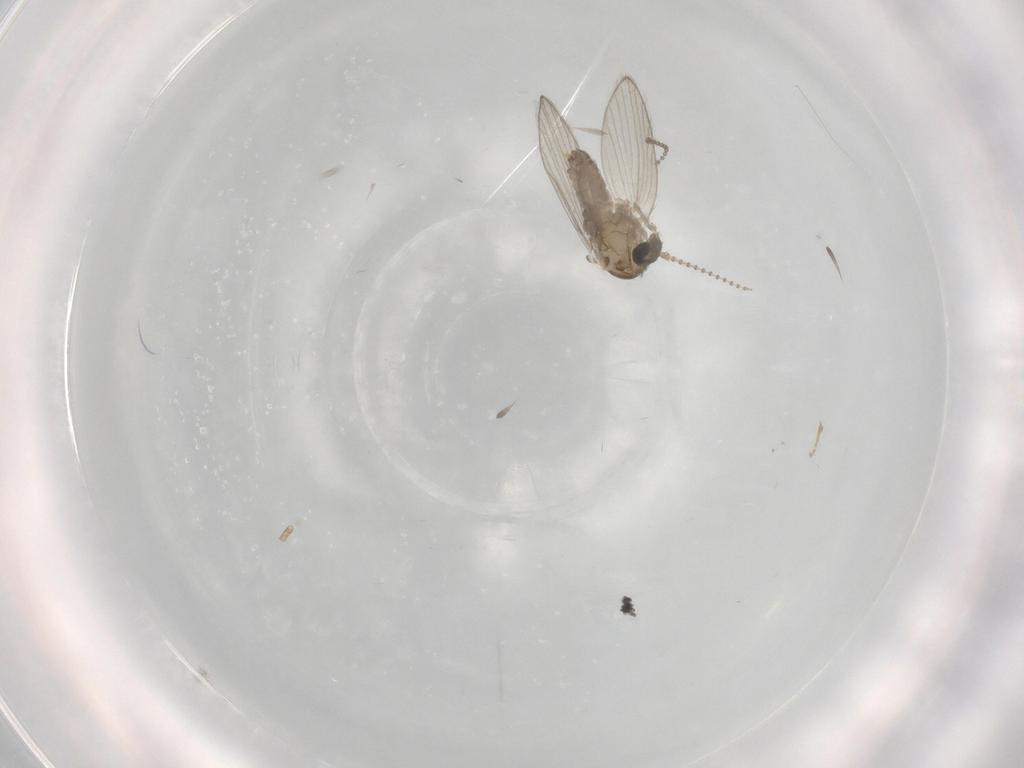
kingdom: Animalia
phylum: Arthropoda
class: Insecta
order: Diptera
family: Psychodidae
